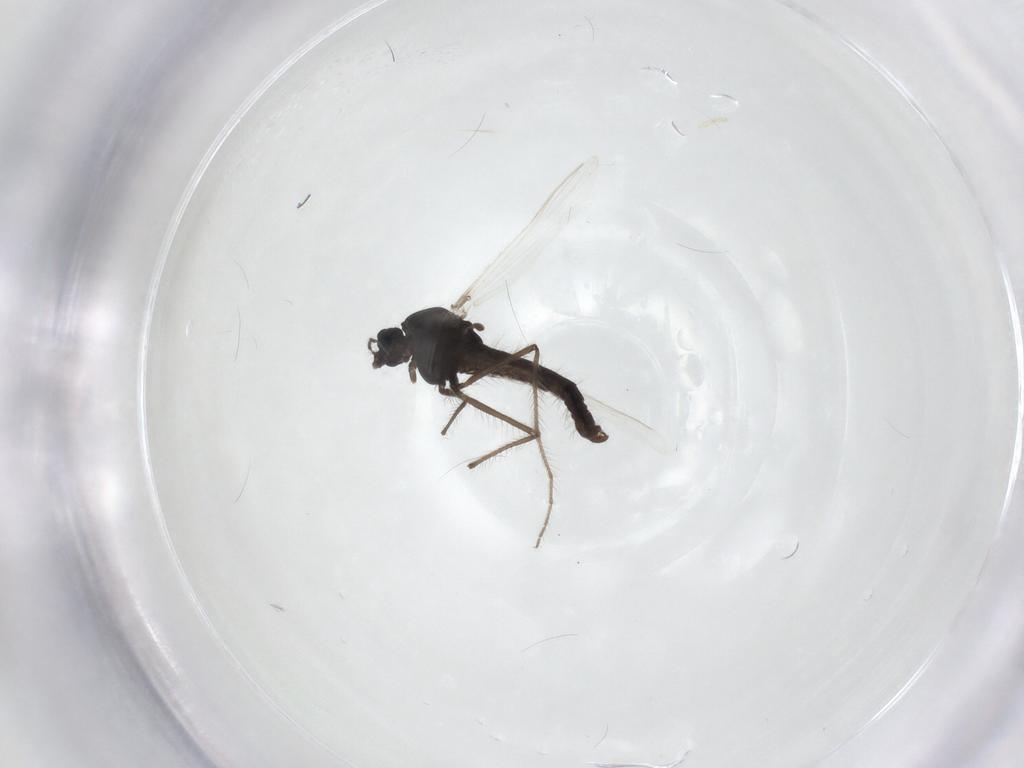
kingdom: Animalia
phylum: Arthropoda
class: Insecta
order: Diptera
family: Chironomidae
